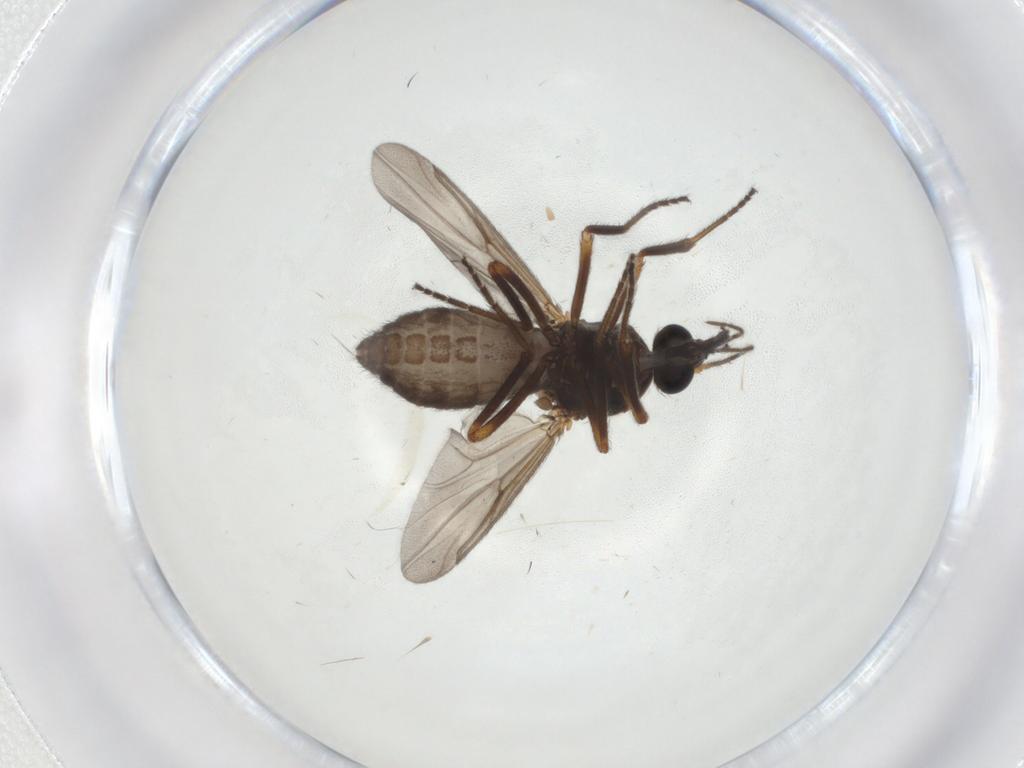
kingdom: Animalia
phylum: Arthropoda
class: Insecta
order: Diptera
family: Ceratopogonidae
